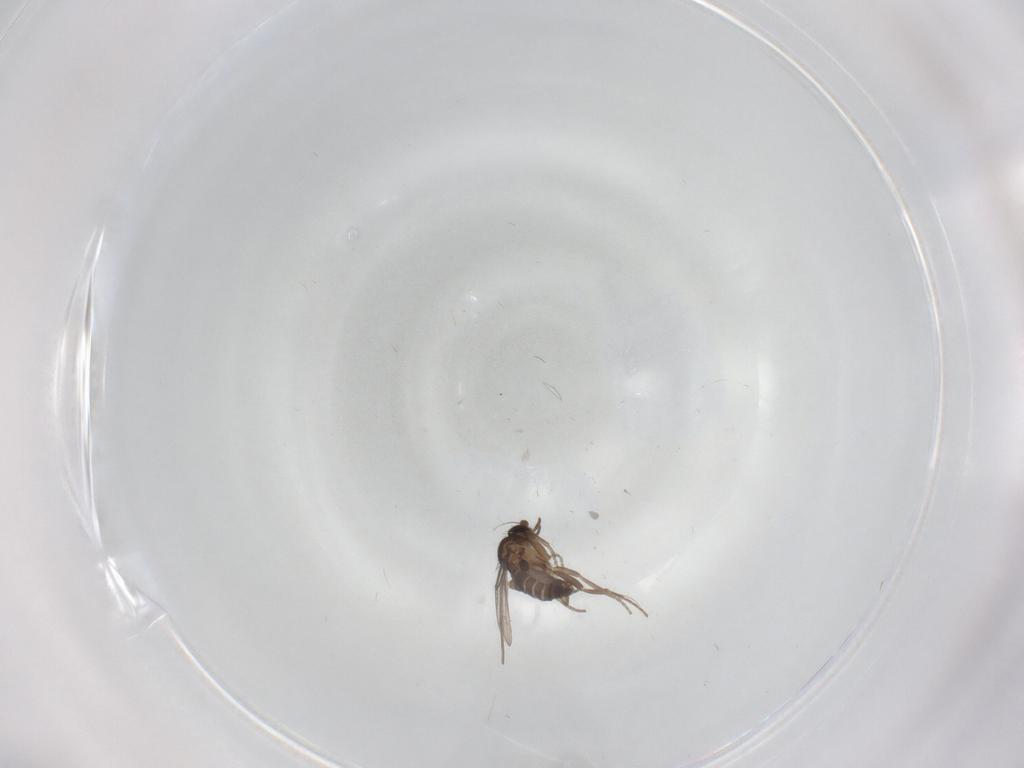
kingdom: Animalia
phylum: Arthropoda
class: Insecta
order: Diptera
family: Phoridae
